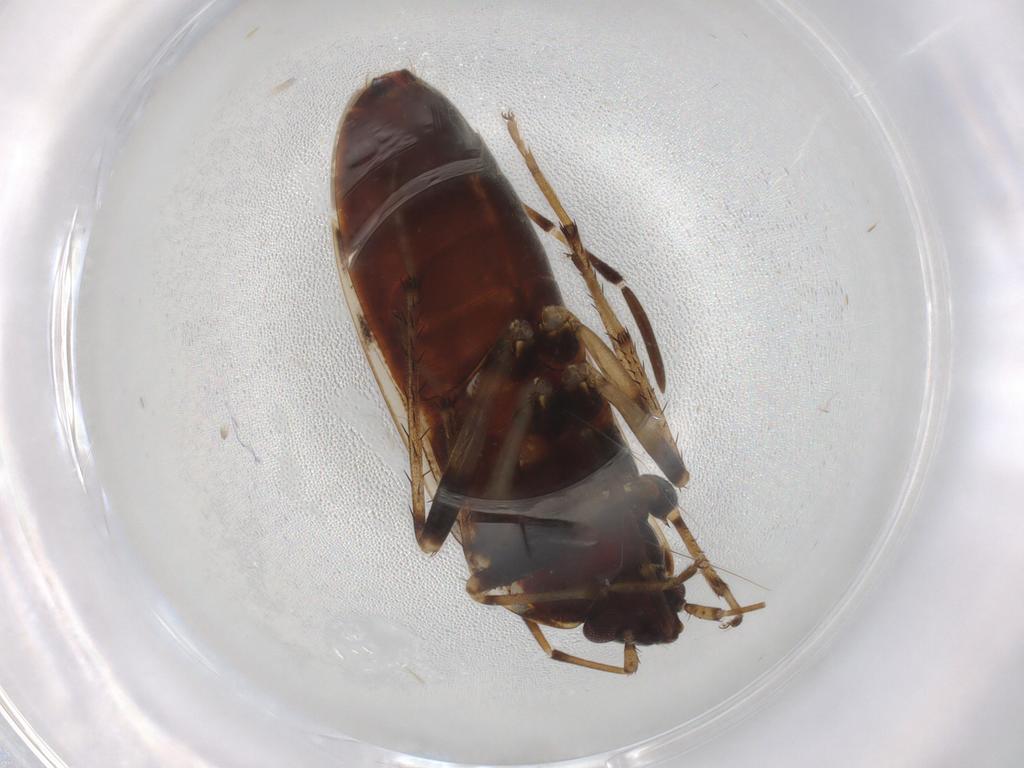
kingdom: Animalia
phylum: Arthropoda
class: Insecta
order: Hemiptera
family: Rhyparochromidae
